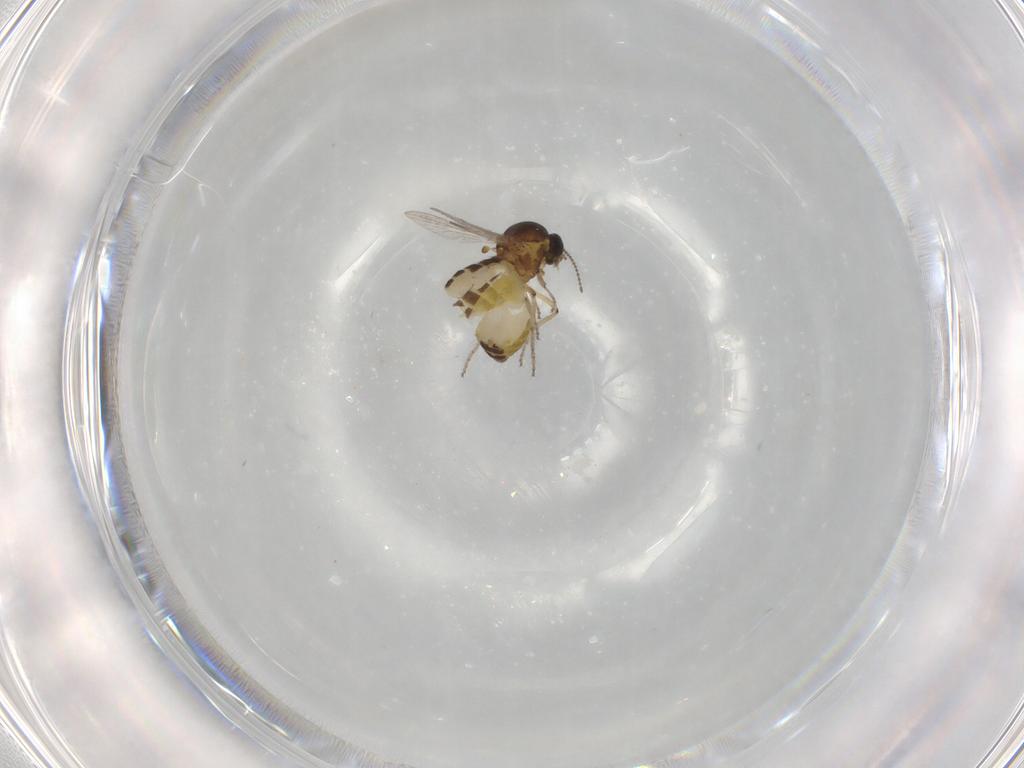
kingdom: Animalia
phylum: Arthropoda
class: Insecta
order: Diptera
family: Ceratopogonidae
